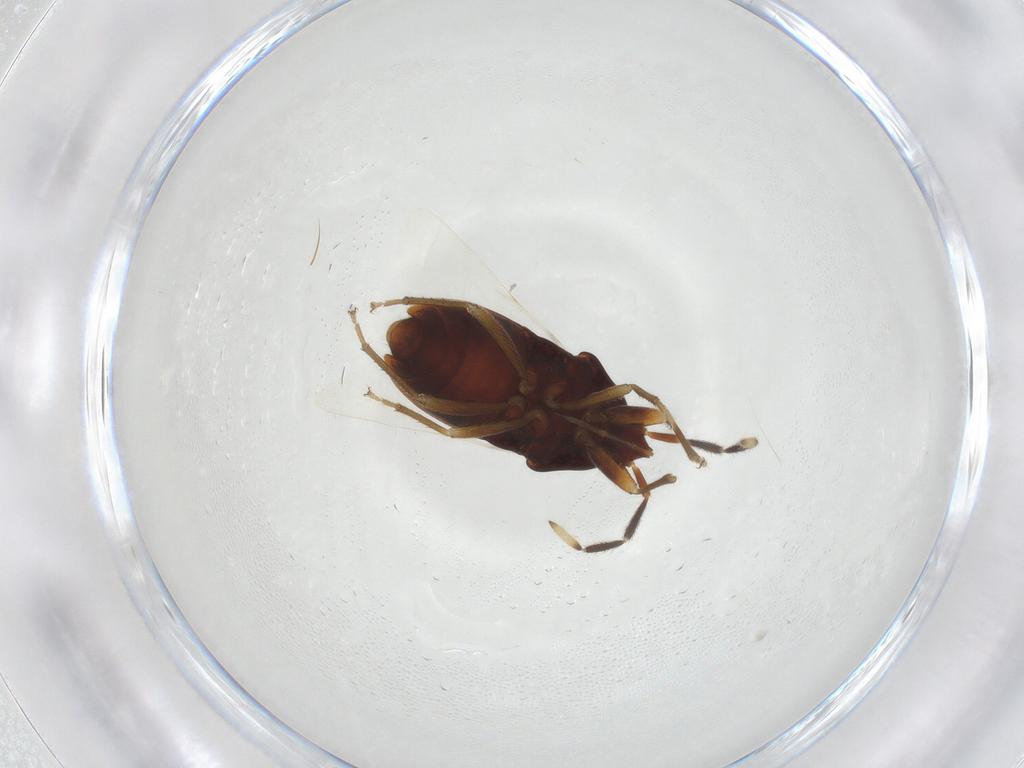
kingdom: Animalia
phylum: Arthropoda
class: Insecta
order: Hemiptera
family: Rhyparochromidae
